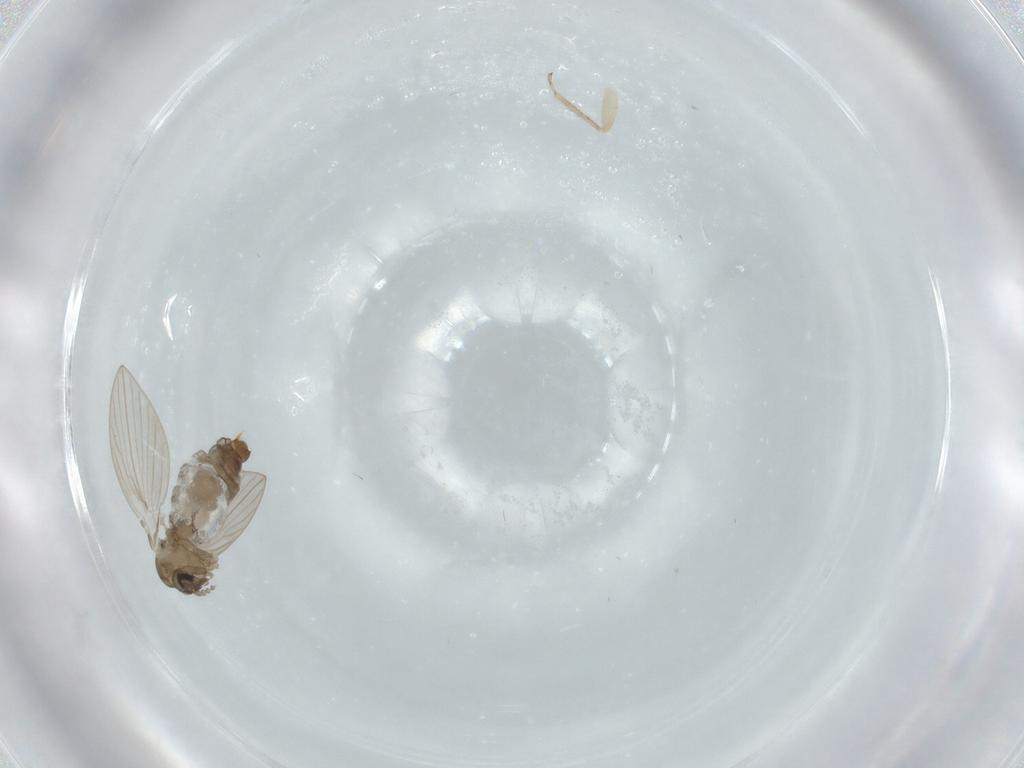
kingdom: Animalia
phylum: Arthropoda
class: Insecta
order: Diptera
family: Psychodidae
